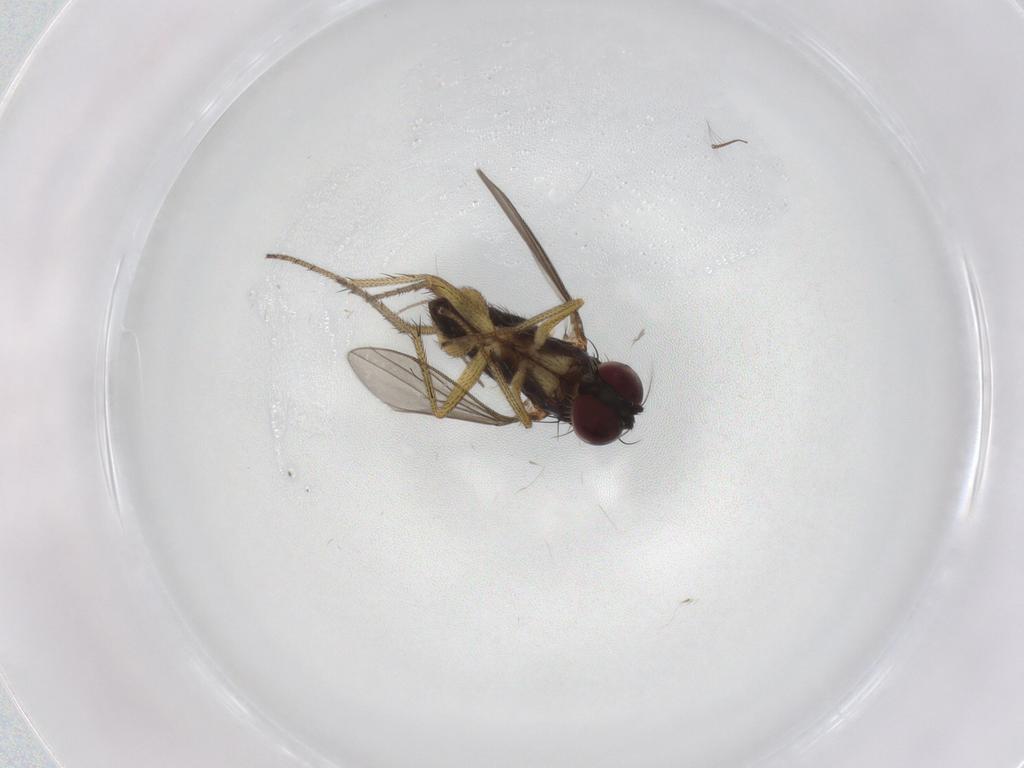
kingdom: Animalia
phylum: Arthropoda
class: Insecta
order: Diptera
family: Dolichopodidae
